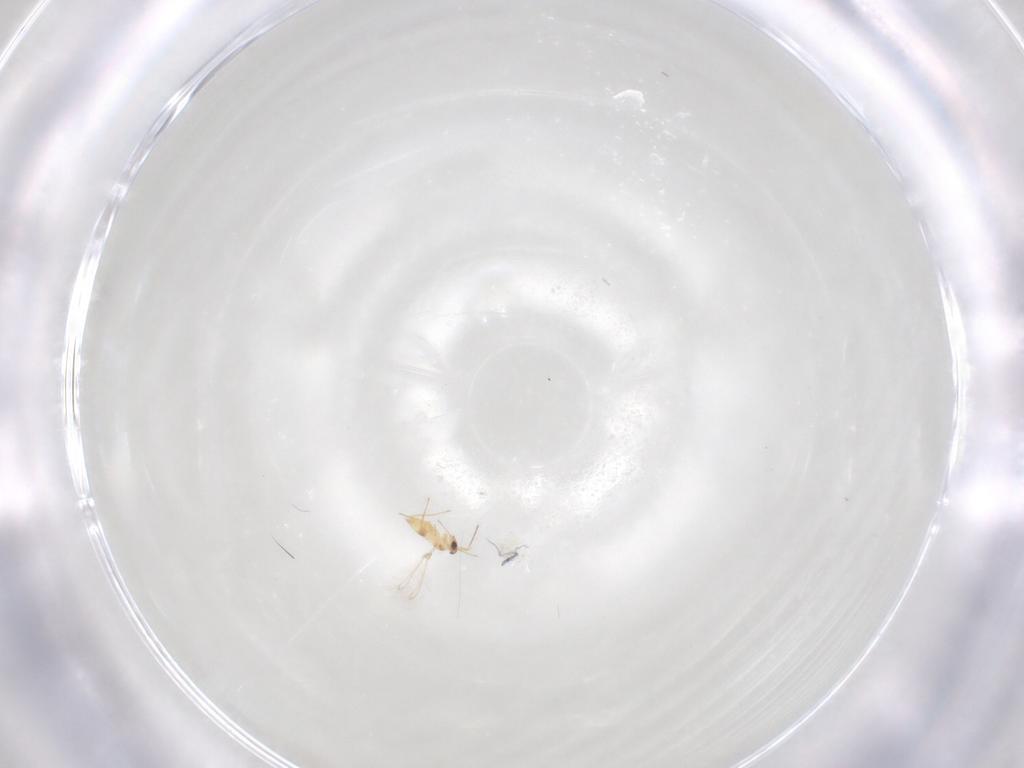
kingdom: Animalia
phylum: Arthropoda
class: Insecta
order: Hymenoptera
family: Mymaridae
